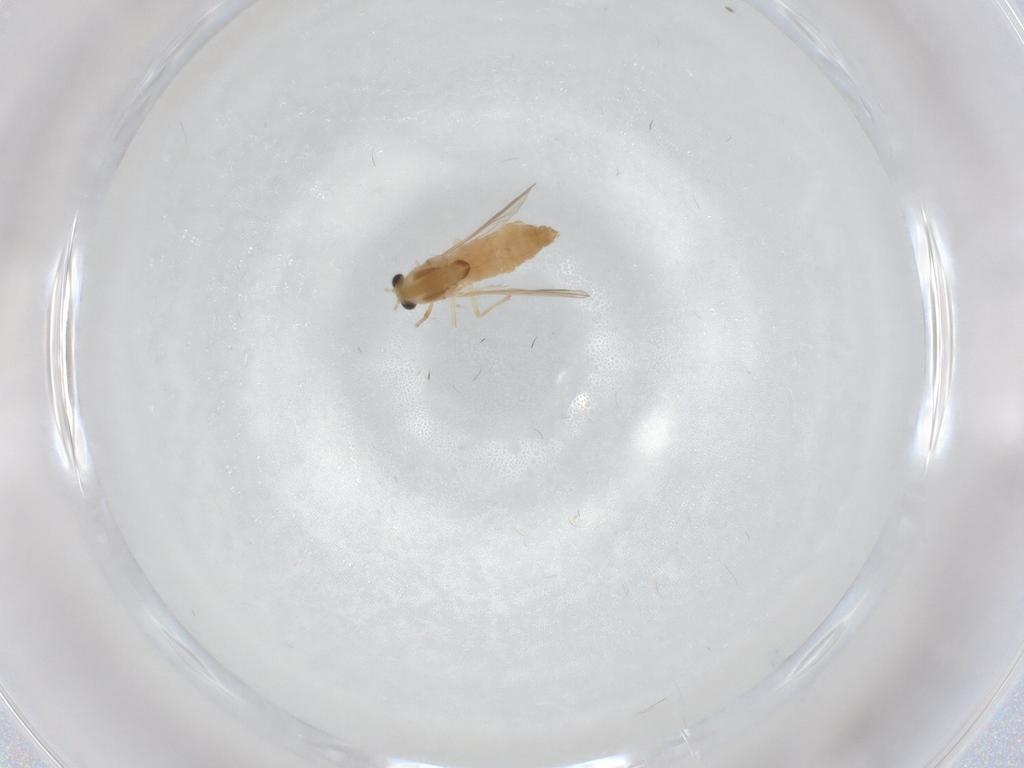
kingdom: Animalia
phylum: Arthropoda
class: Insecta
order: Diptera
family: Chironomidae
